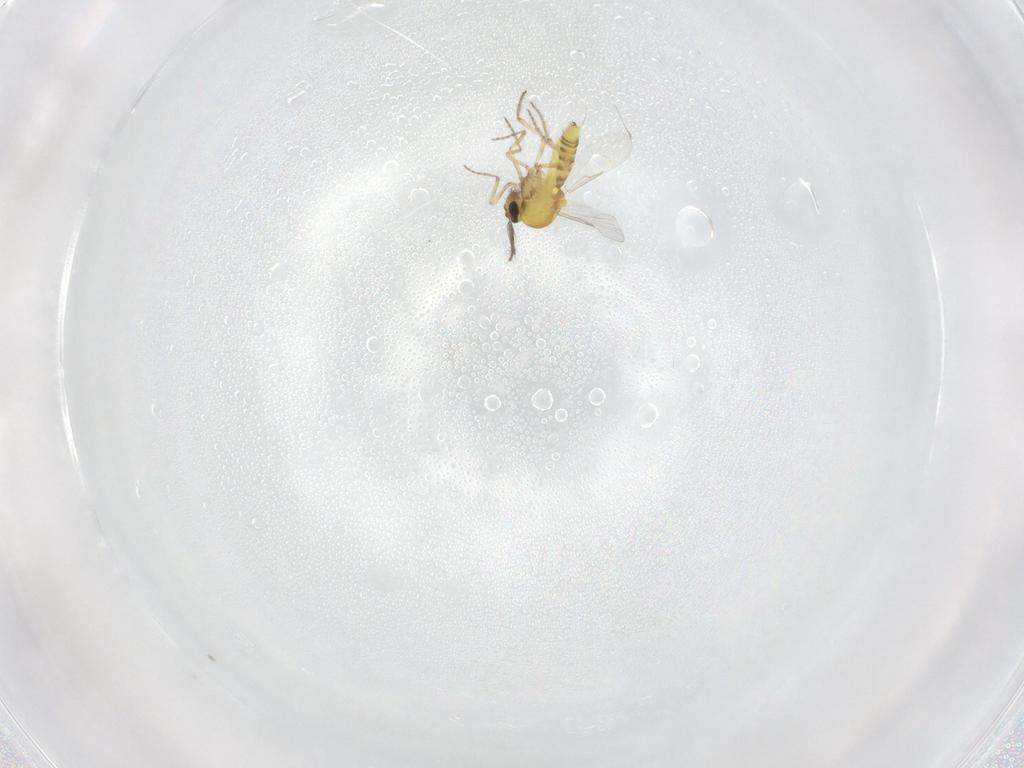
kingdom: Animalia
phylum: Arthropoda
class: Insecta
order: Diptera
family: Ceratopogonidae
